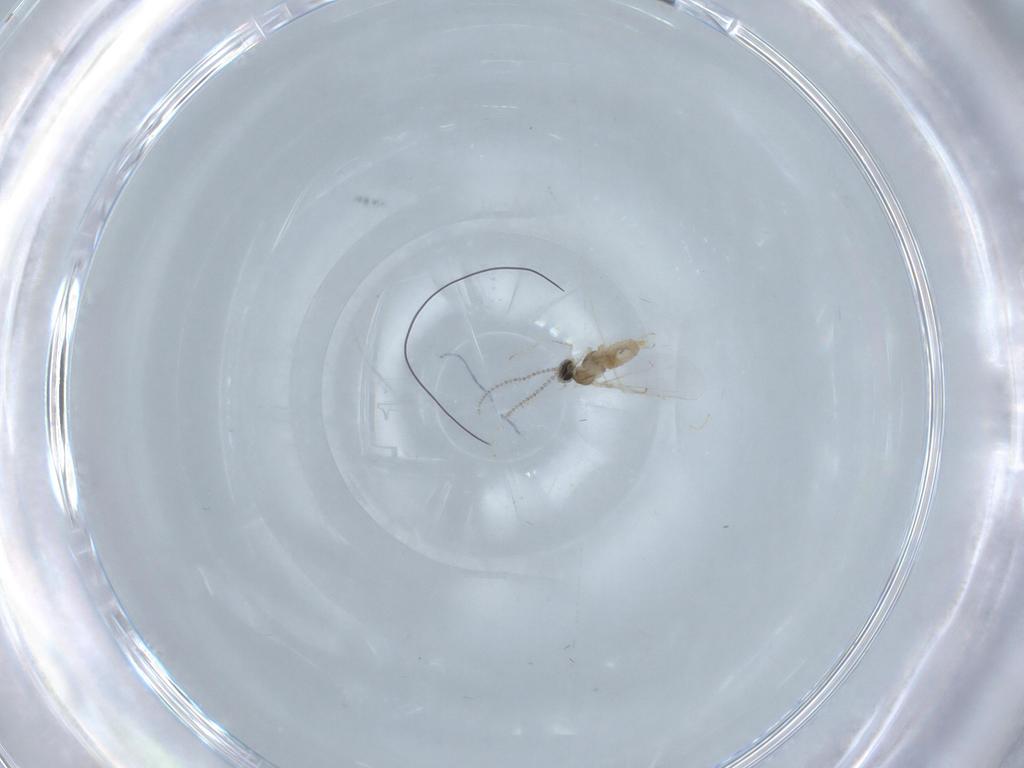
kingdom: Animalia
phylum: Arthropoda
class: Insecta
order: Diptera
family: Cecidomyiidae
